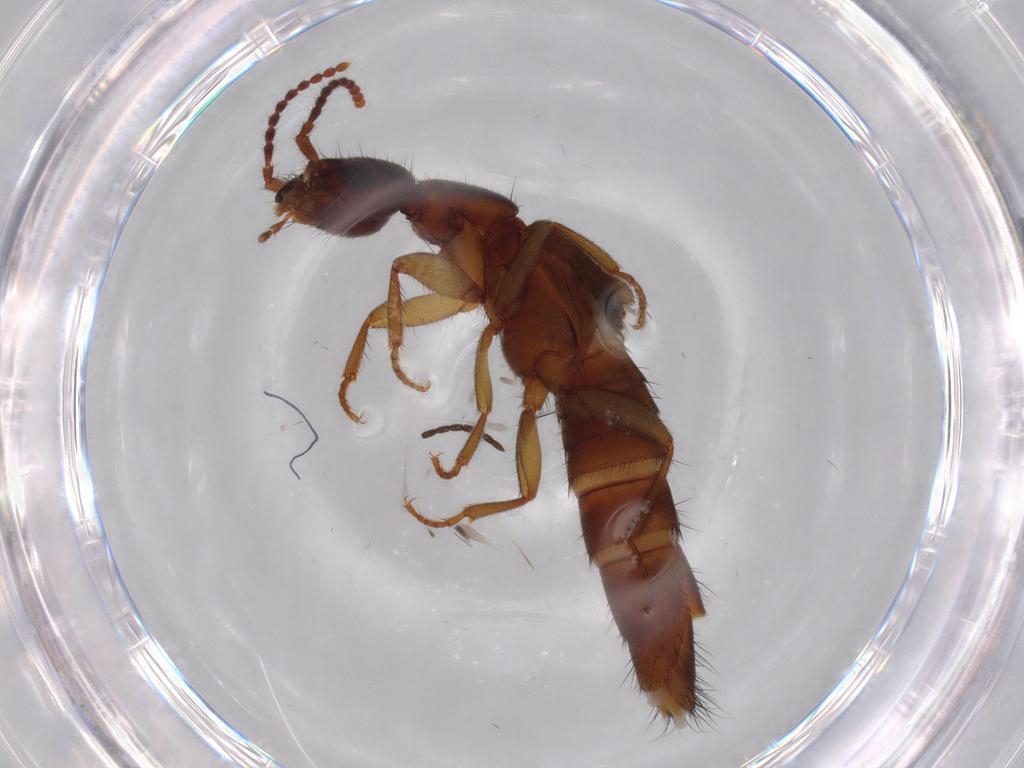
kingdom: Animalia
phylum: Arthropoda
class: Insecta
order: Coleoptera
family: Staphylinidae
